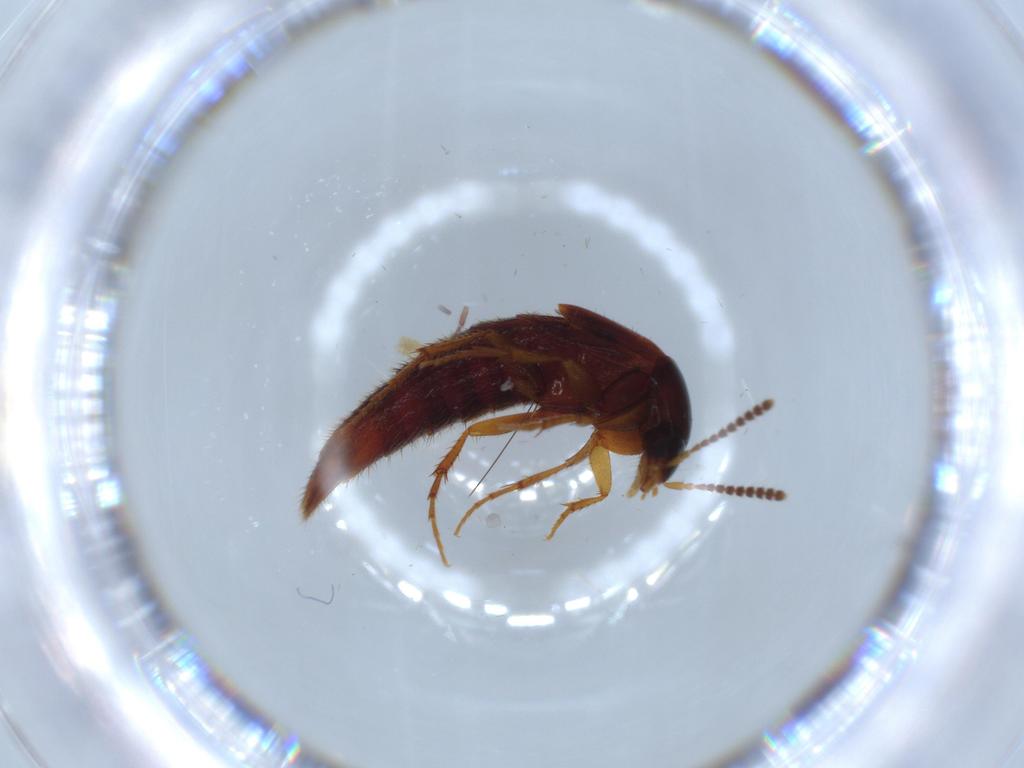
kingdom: Animalia
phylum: Arthropoda
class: Insecta
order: Coleoptera
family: Staphylinidae
